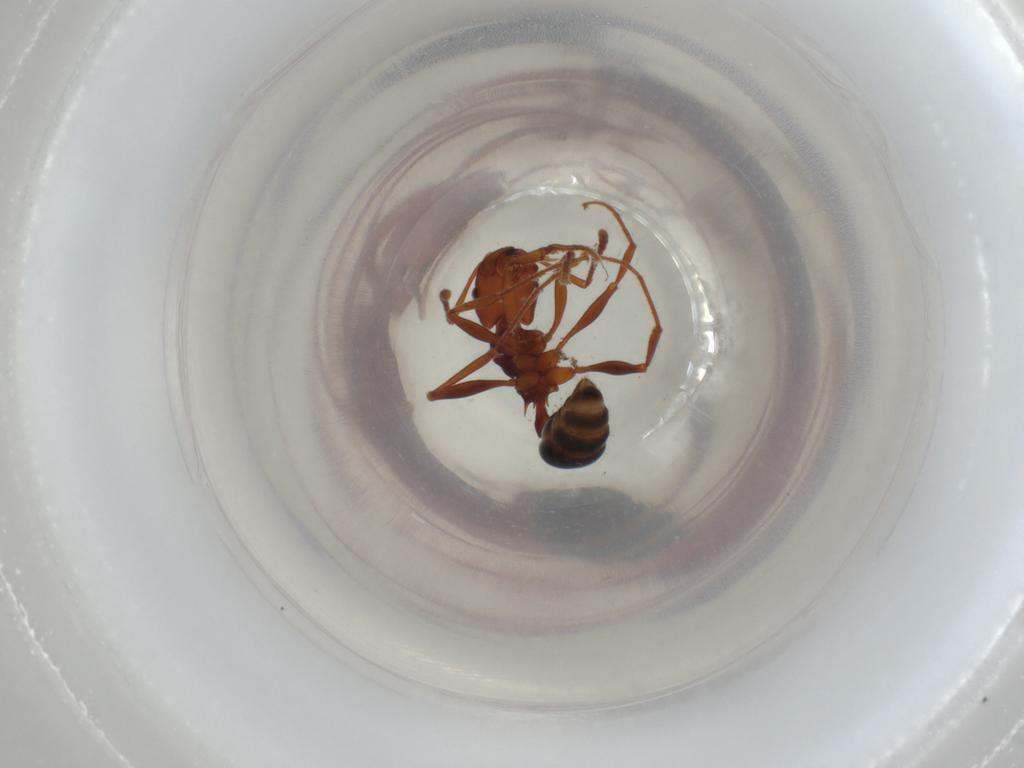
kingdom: Animalia
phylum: Arthropoda
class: Insecta
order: Hymenoptera
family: Formicidae
